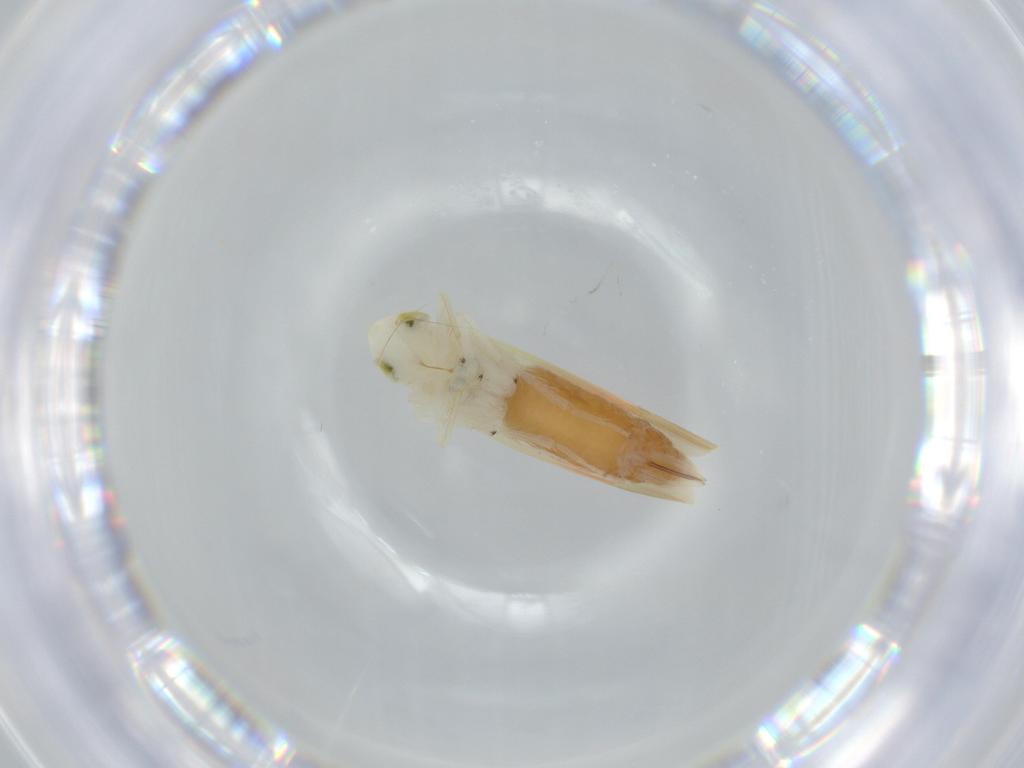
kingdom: Animalia
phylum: Arthropoda
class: Insecta
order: Hemiptera
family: Cicadellidae
